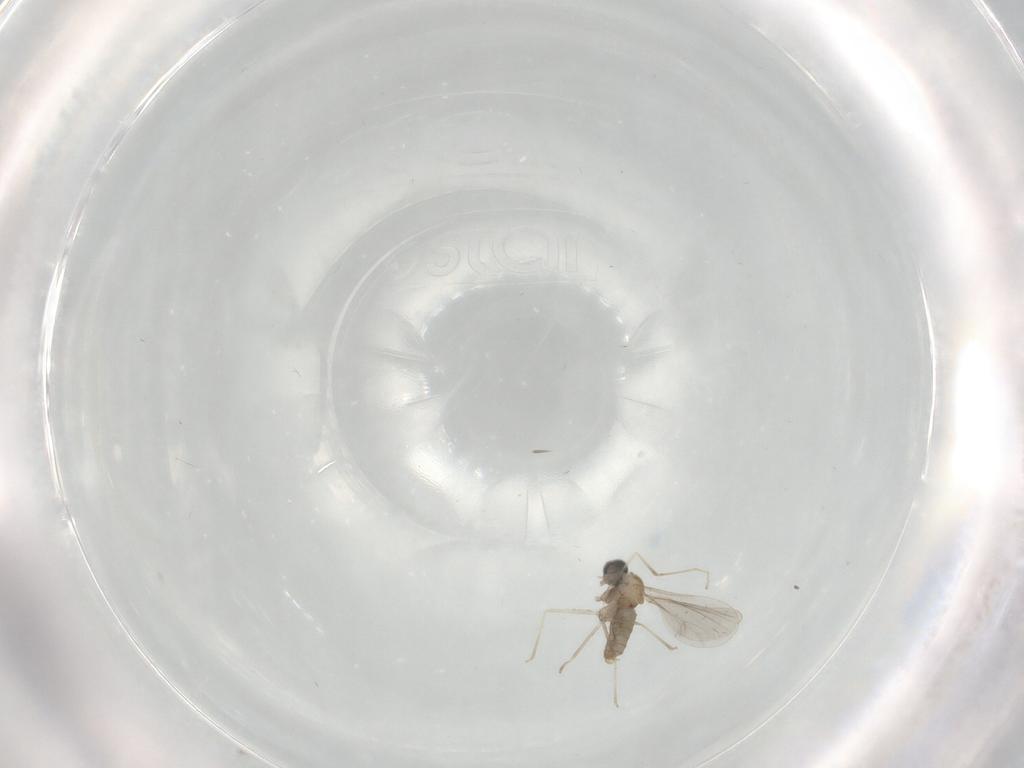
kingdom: Animalia
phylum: Arthropoda
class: Insecta
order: Diptera
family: Cecidomyiidae
